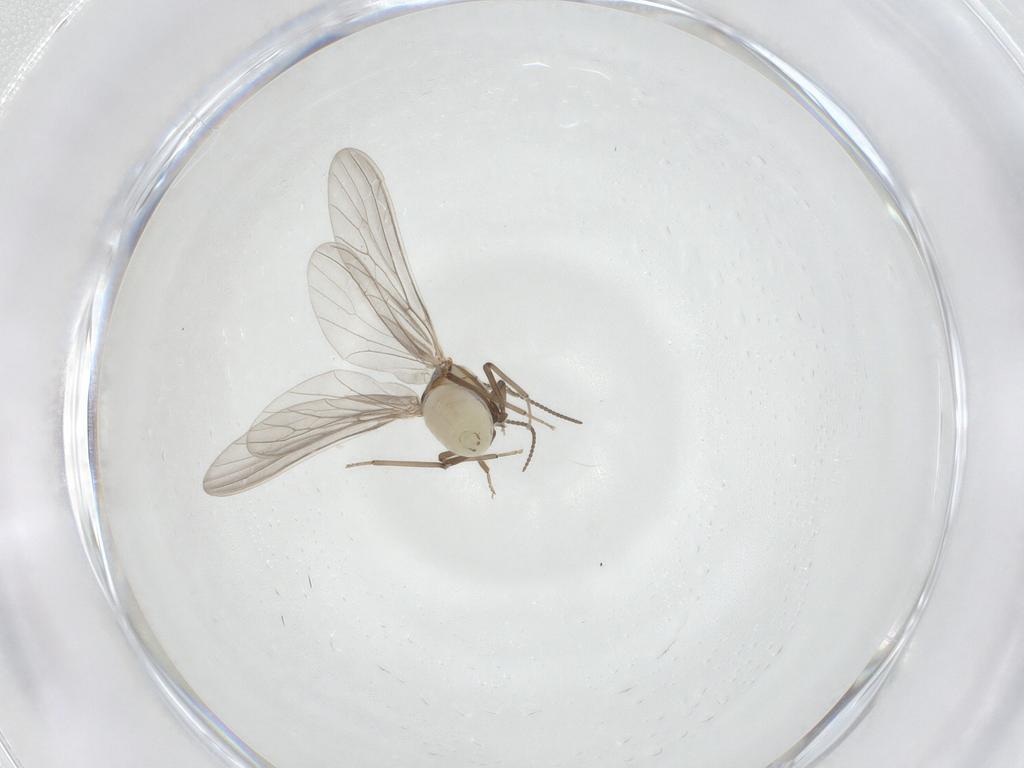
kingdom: Animalia
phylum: Arthropoda
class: Insecta
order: Neuroptera
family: Coniopterygidae
